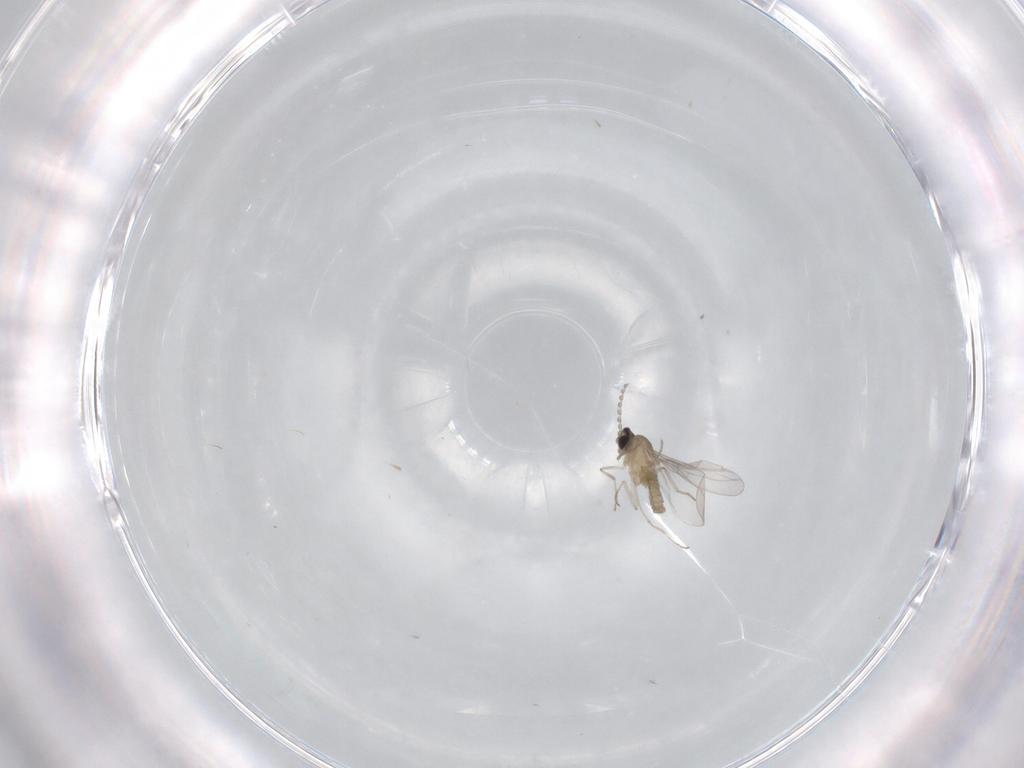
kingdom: Animalia
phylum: Arthropoda
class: Insecta
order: Diptera
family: Cecidomyiidae
